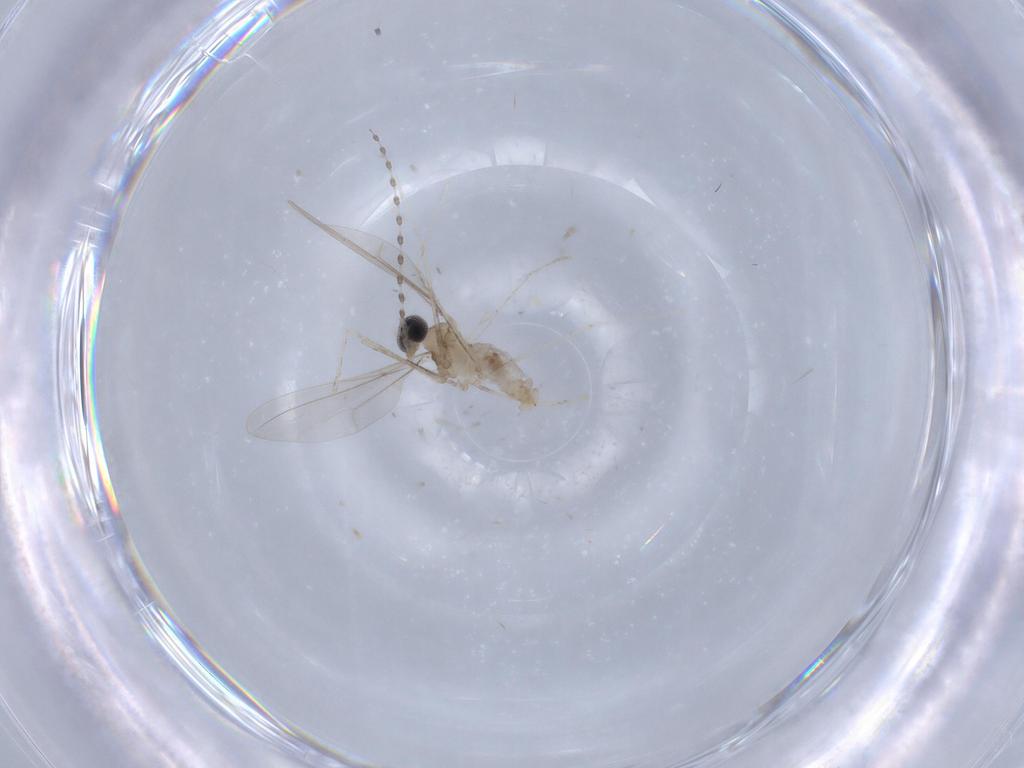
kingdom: Animalia
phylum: Arthropoda
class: Insecta
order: Diptera
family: Cecidomyiidae
